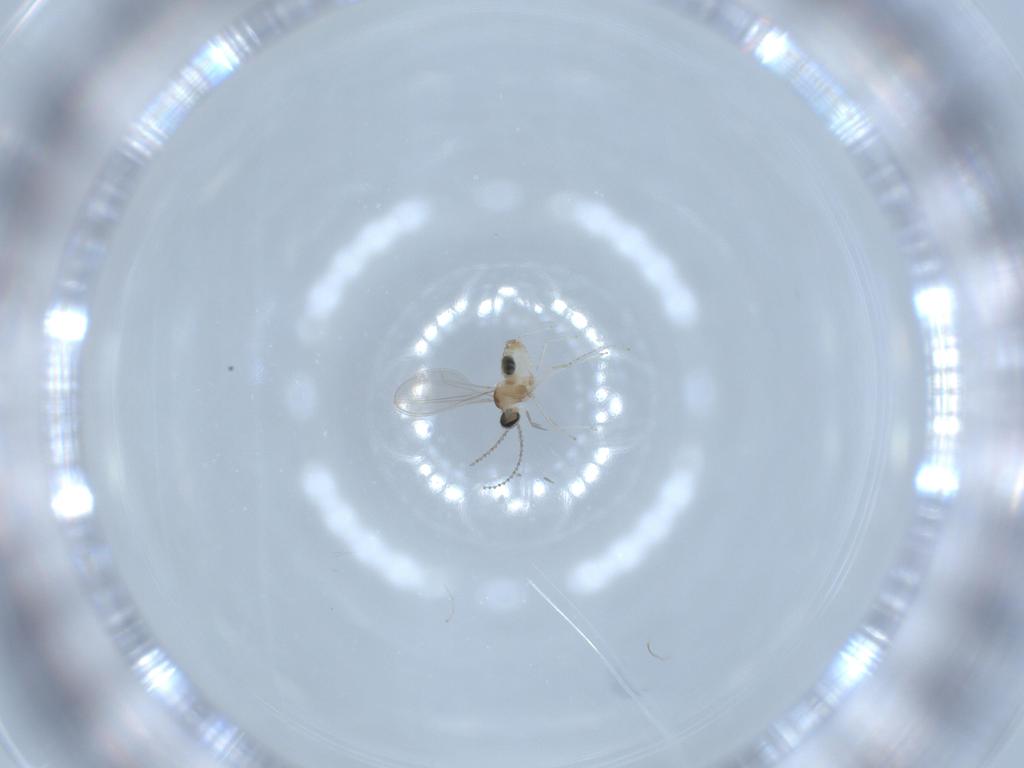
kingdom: Animalia
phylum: Arthropoda
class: Insecta
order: Diptera
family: Cecidomyiidae
